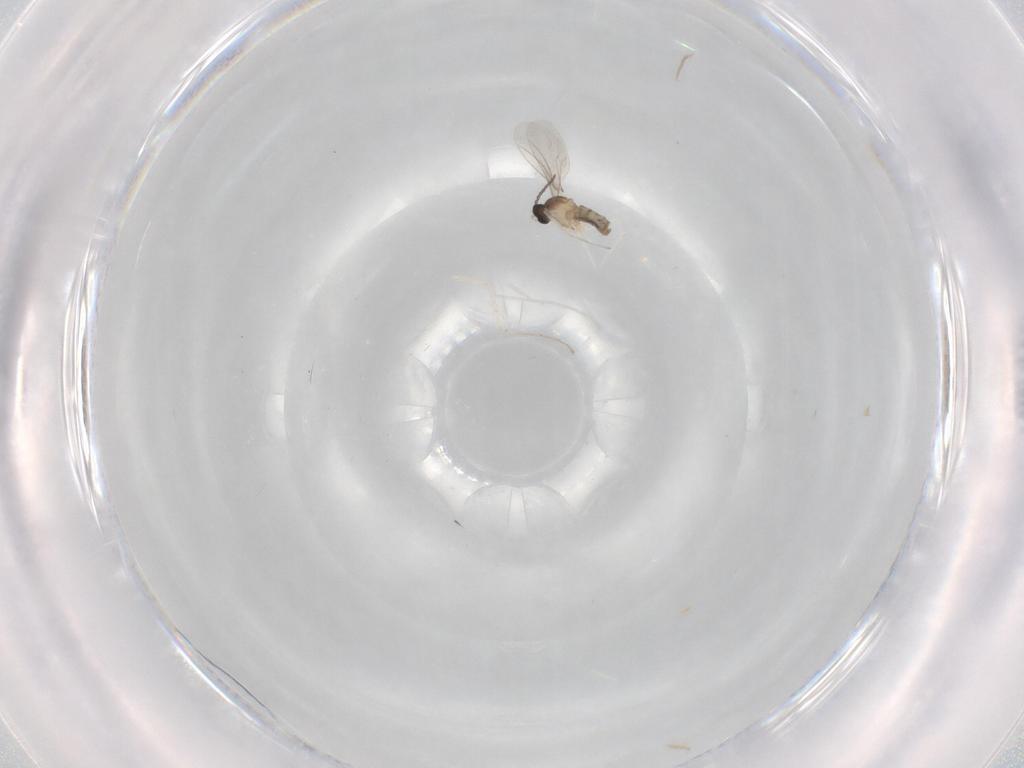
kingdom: Animalia
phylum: Arthropoda
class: Insecta
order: Diptera
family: Cecidomyiidae
